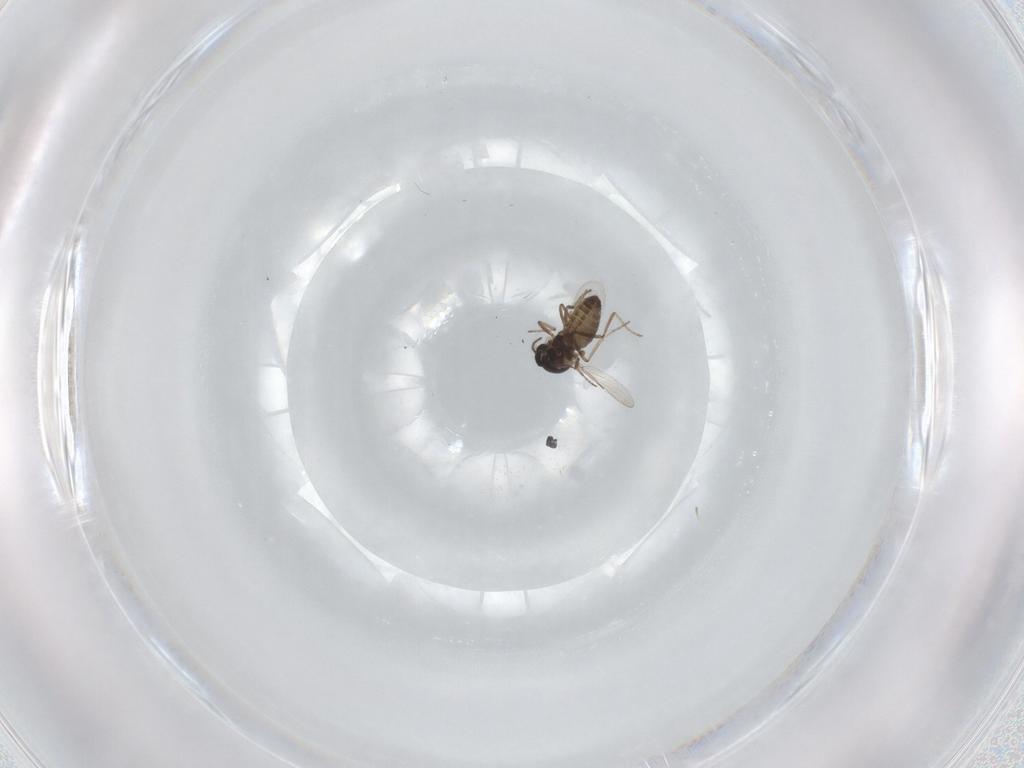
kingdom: Animalia
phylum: Arthropoda
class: Insecta
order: Diptera
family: Ceratopogonidae
